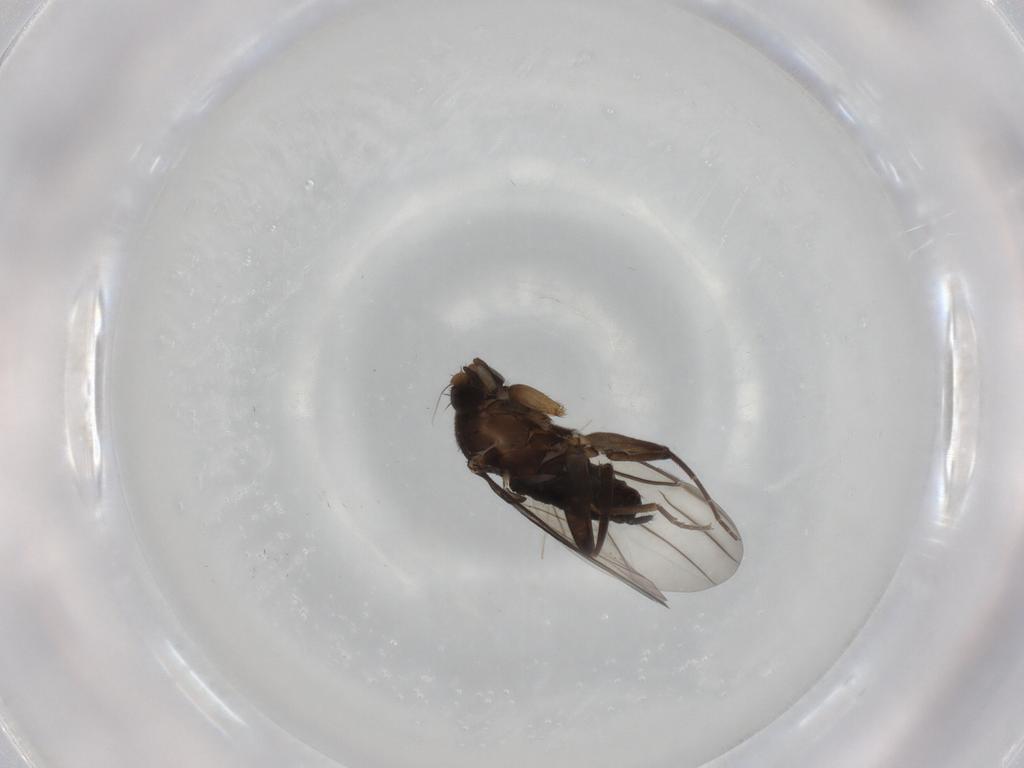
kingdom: Animalia
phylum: Arthropoda
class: Insecta
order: Diptera
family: Cecidomyiidae
